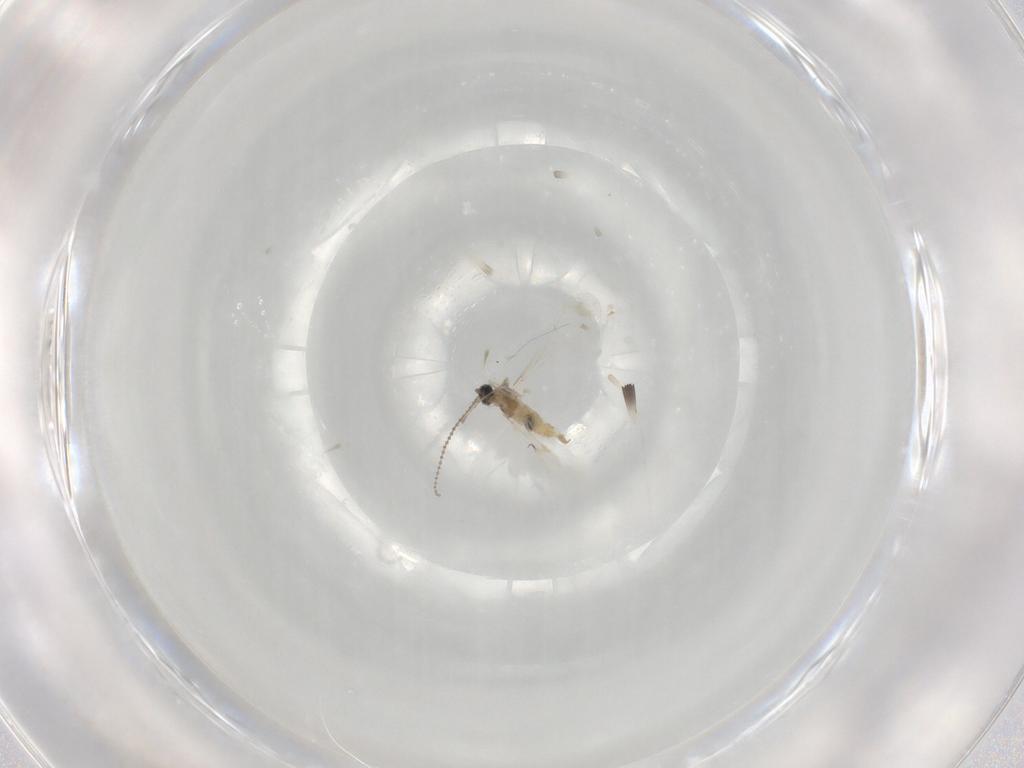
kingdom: Animalia
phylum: Arthropoda
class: Insecta
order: Diptera
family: Cecidomyiidae
